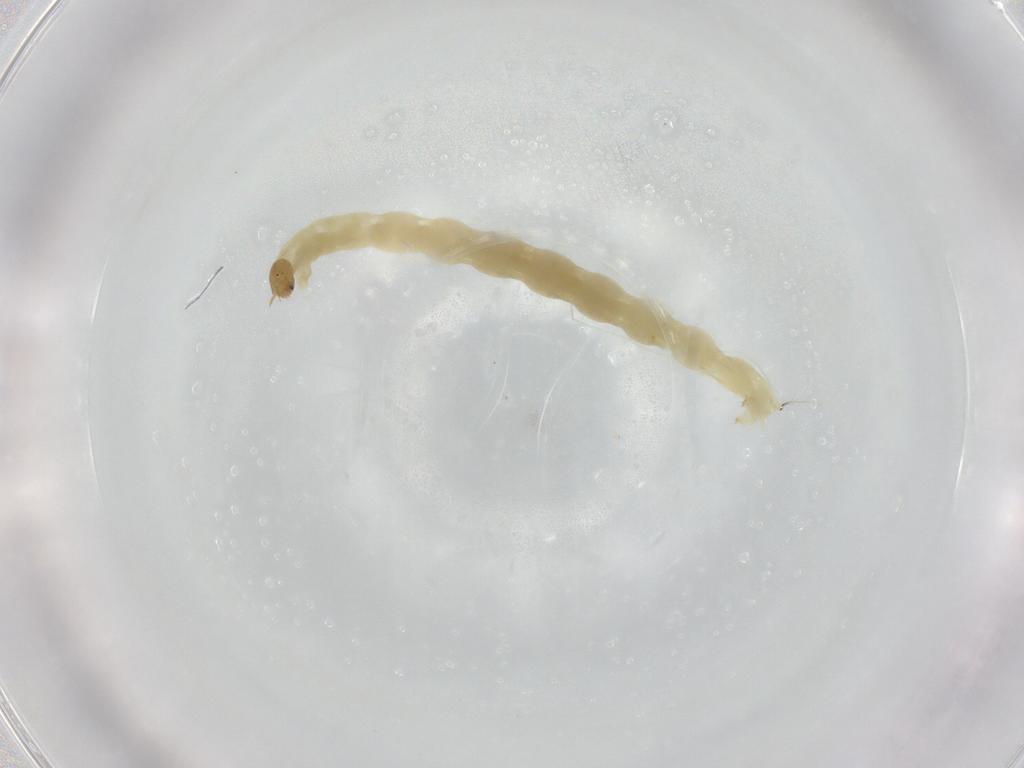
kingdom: Animalia
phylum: Arthropoda
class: Insecta
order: Diptera
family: Chironomidae
